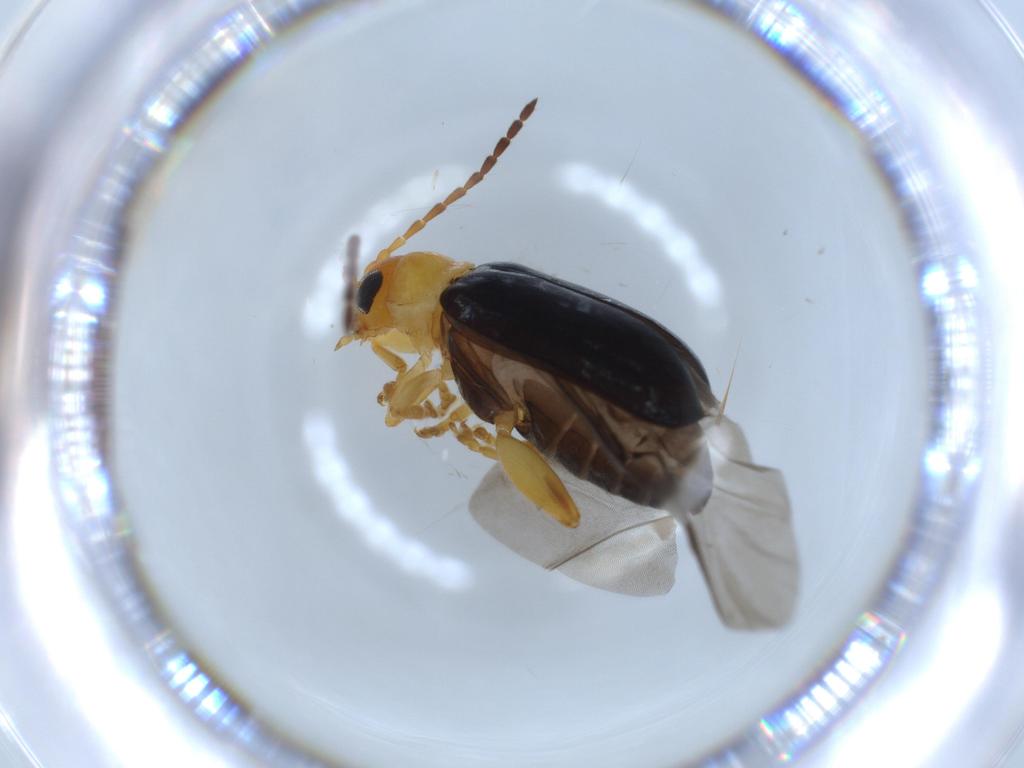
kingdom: Animalia
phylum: Arthropoda
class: Insecta
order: Coleoptera
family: Chrysomelidae
